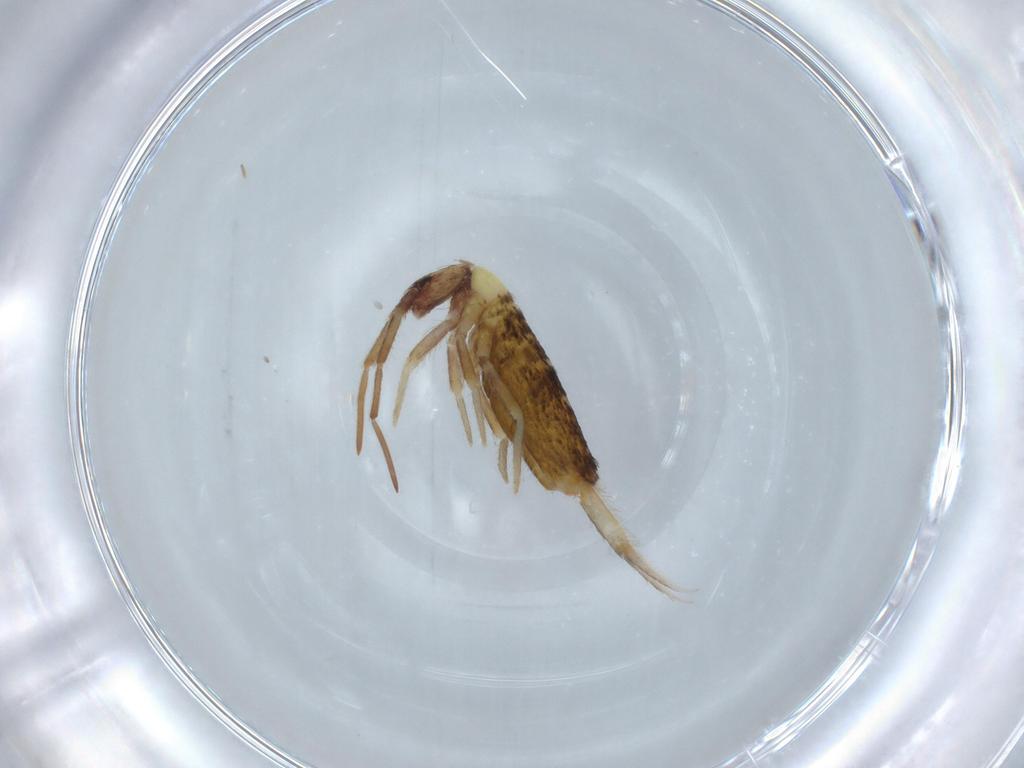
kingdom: Animalia
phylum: Arthropoda
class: Collembola
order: Entomobryomorpha
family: Entomobryidae
